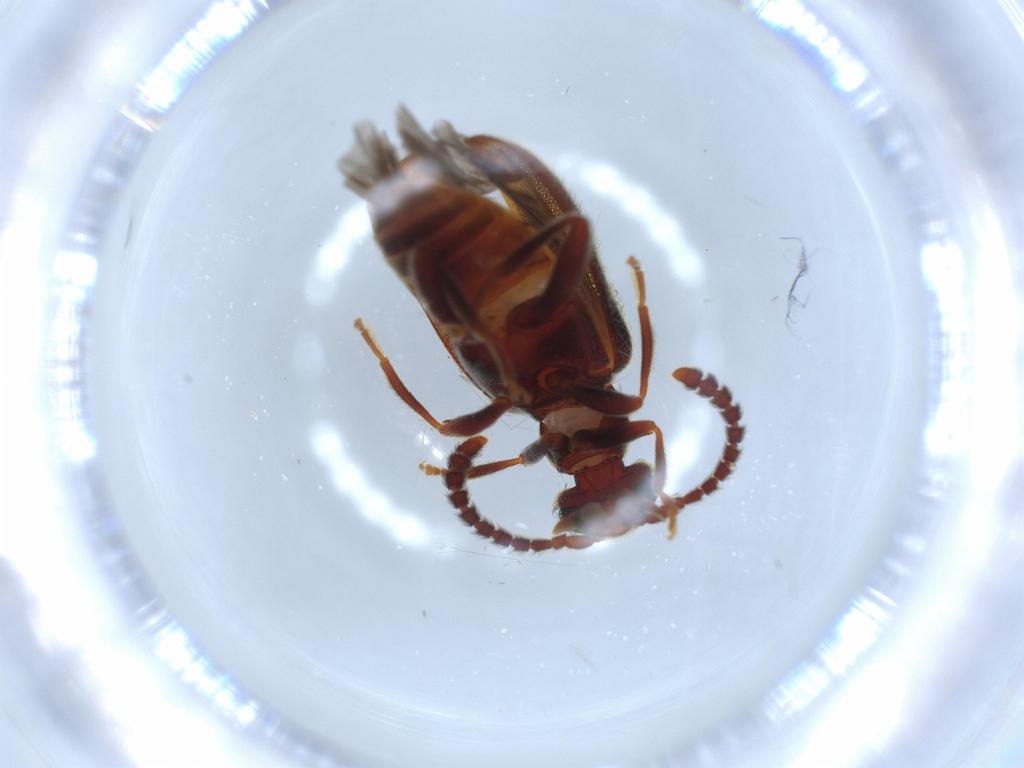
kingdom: Animalia
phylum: Arthropoda
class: Insecta
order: Coleoptera
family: Aderidae
